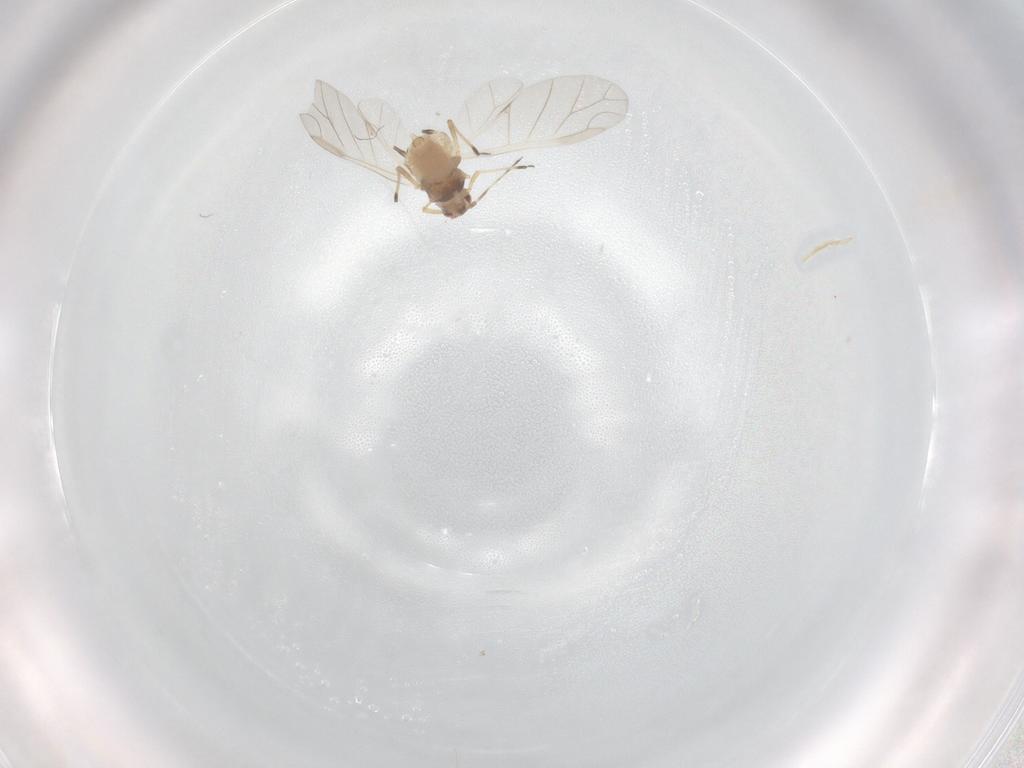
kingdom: Animalia
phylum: Arthropoda
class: Insecta
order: Hemiptera
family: Aphididae
